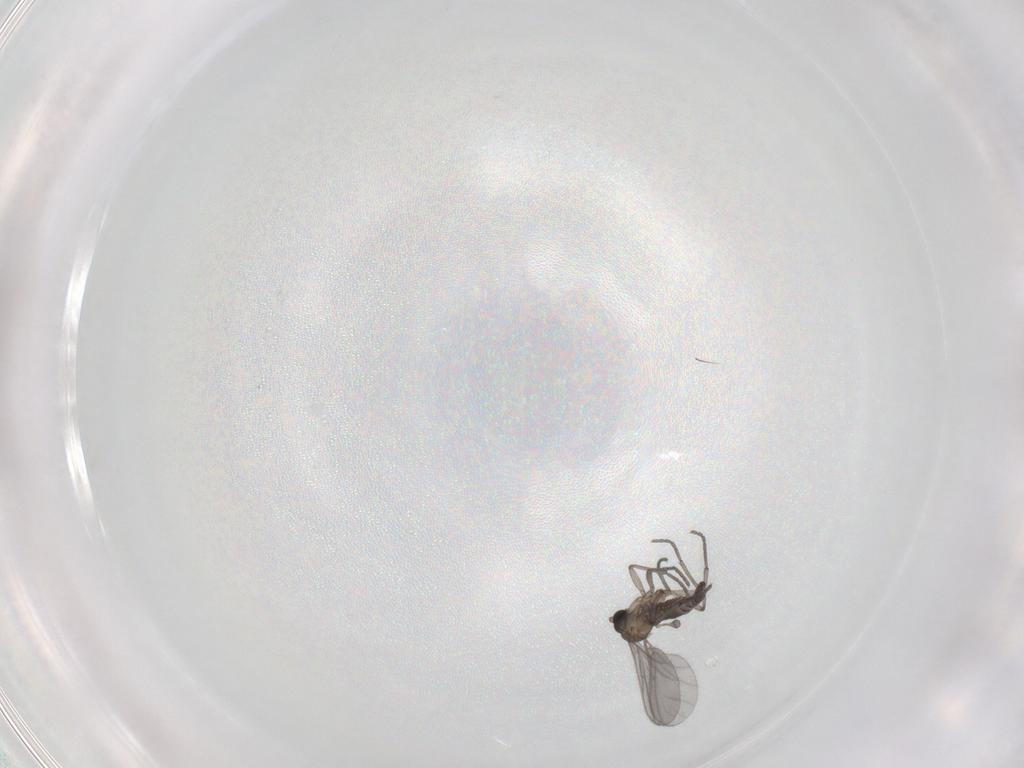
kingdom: Animalia
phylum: Arthropoda
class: Insecta
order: Diptera
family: Sciaridae
